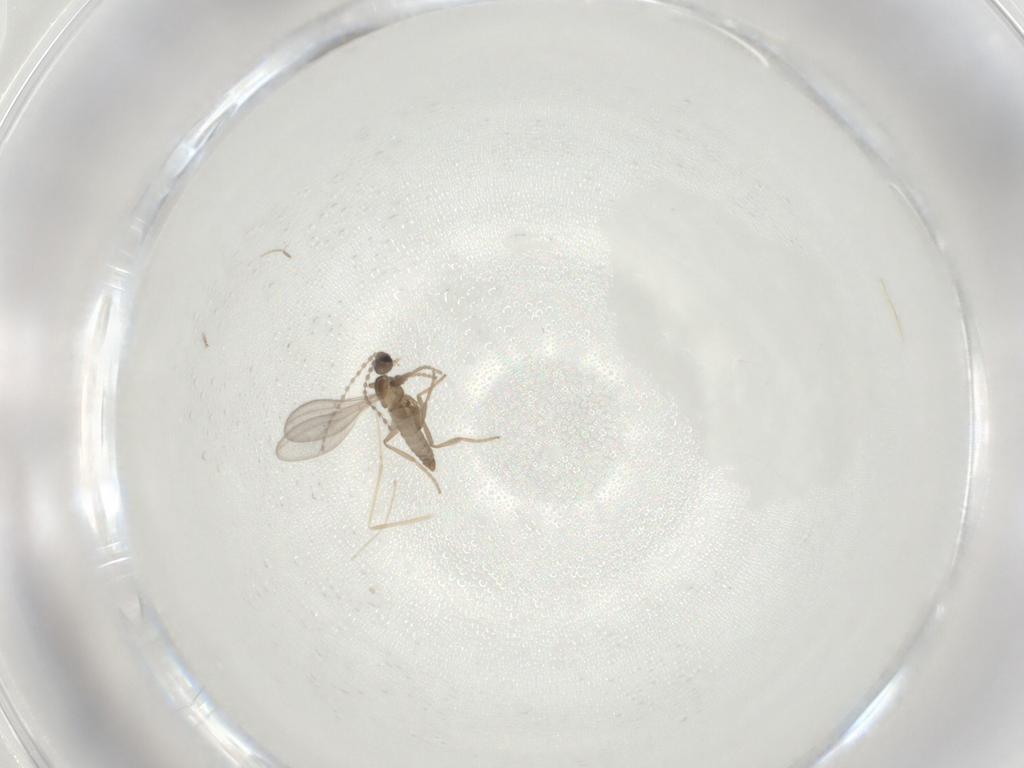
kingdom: Animalia
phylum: Arthropoda
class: Insecta
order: Diptera
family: Cecidomyiidae
